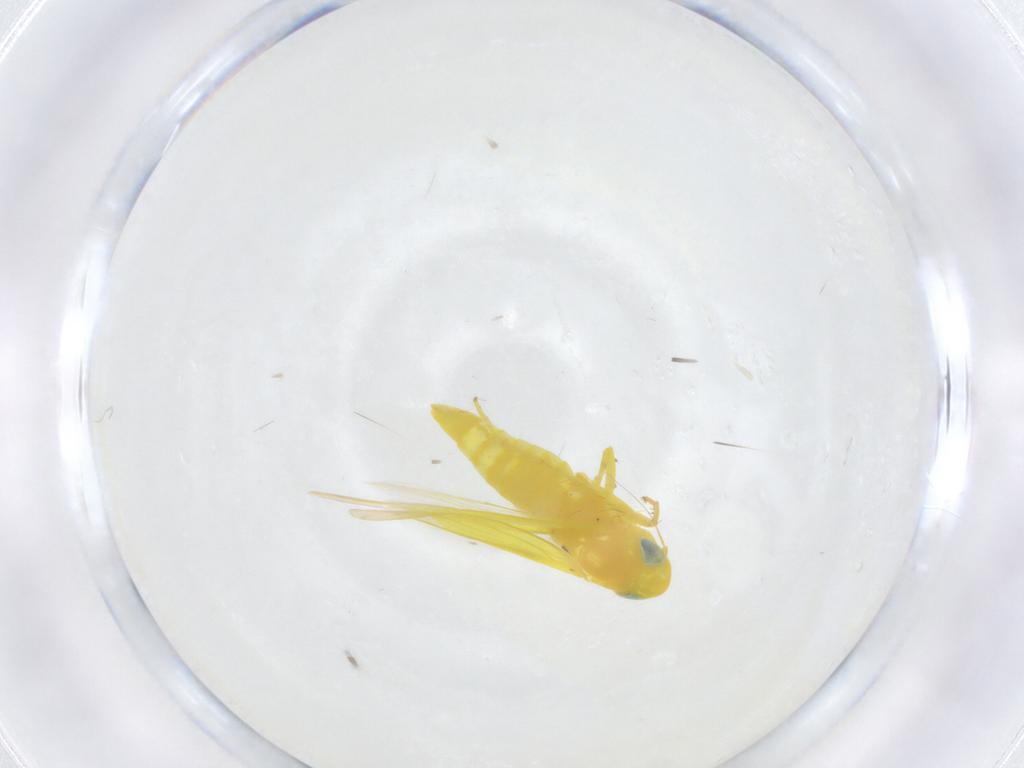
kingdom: Animalia
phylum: Arthropoda
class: Insecta
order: Hemiptera
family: Cicadellidae
